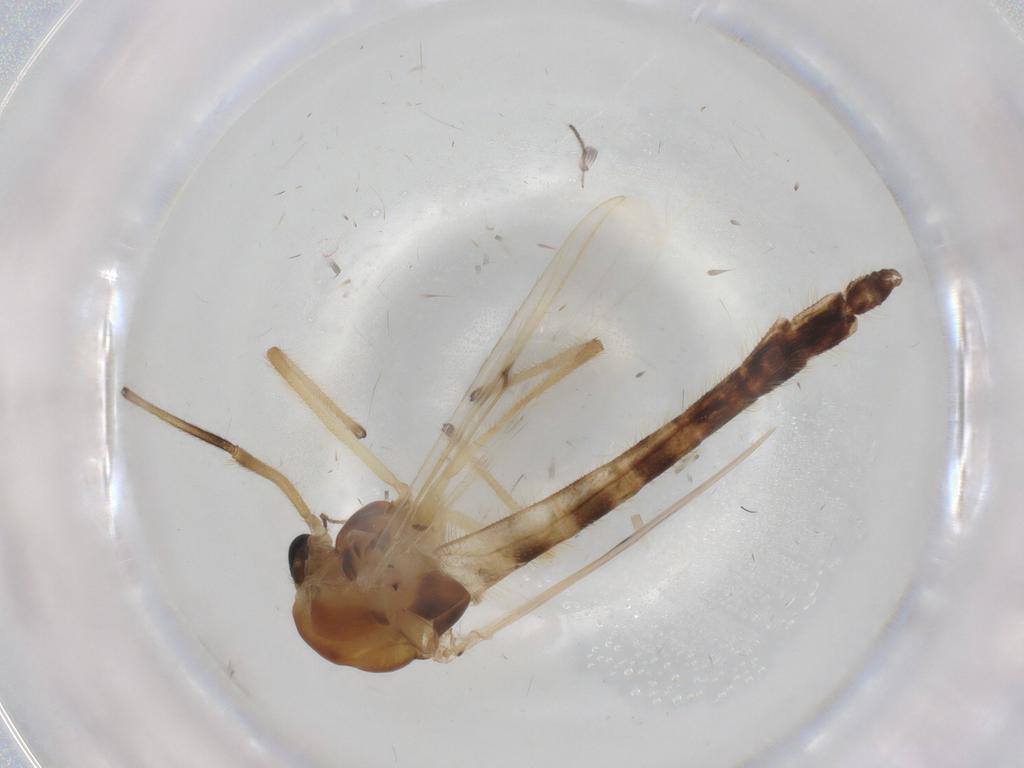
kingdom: Animalia
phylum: Arthropoda
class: Insecta
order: Diptera
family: Chironomidae
